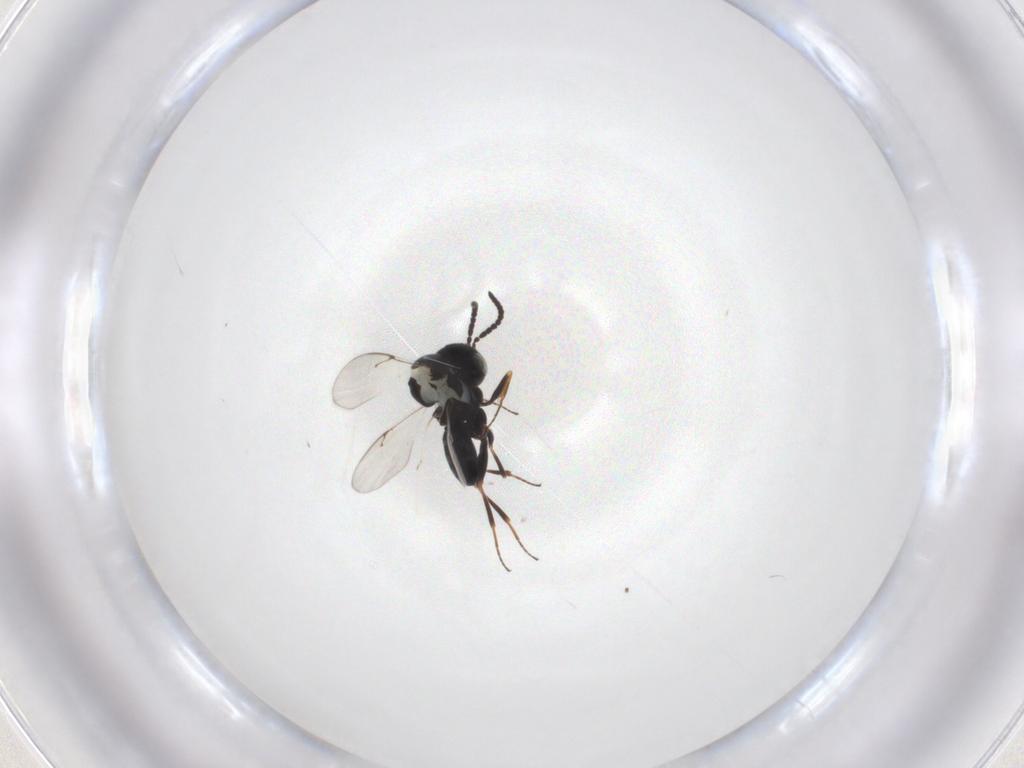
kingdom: Animalia
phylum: Arthropoda
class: Insecta
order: Hymenoptera
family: Scelionidae
